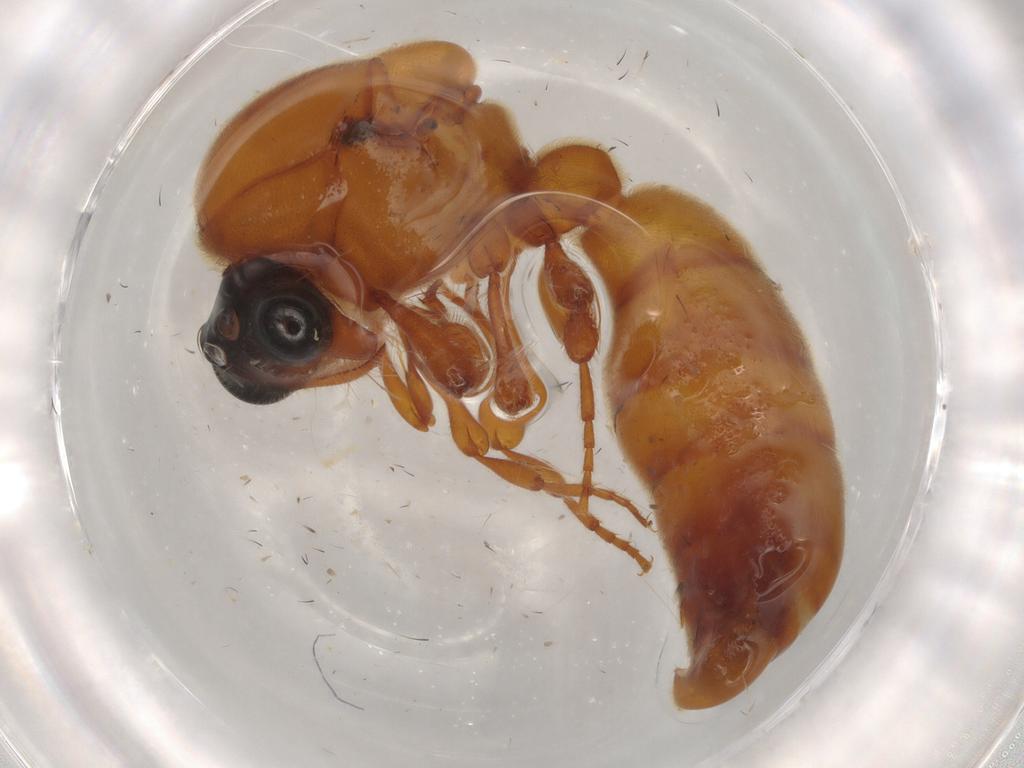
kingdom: Animalia
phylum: Arthropoda
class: Insecta
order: Hymenoptera
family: Formicidae
